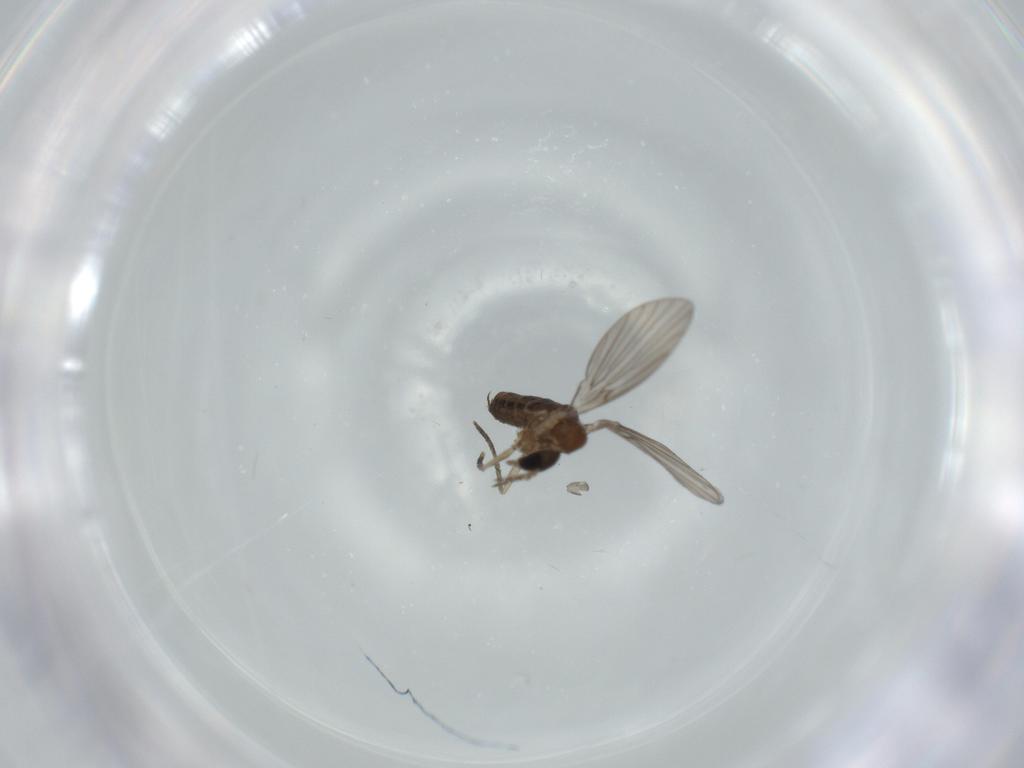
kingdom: Animalia
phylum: Arthropoda
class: Insecta
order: Diptera
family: Psychodidae
